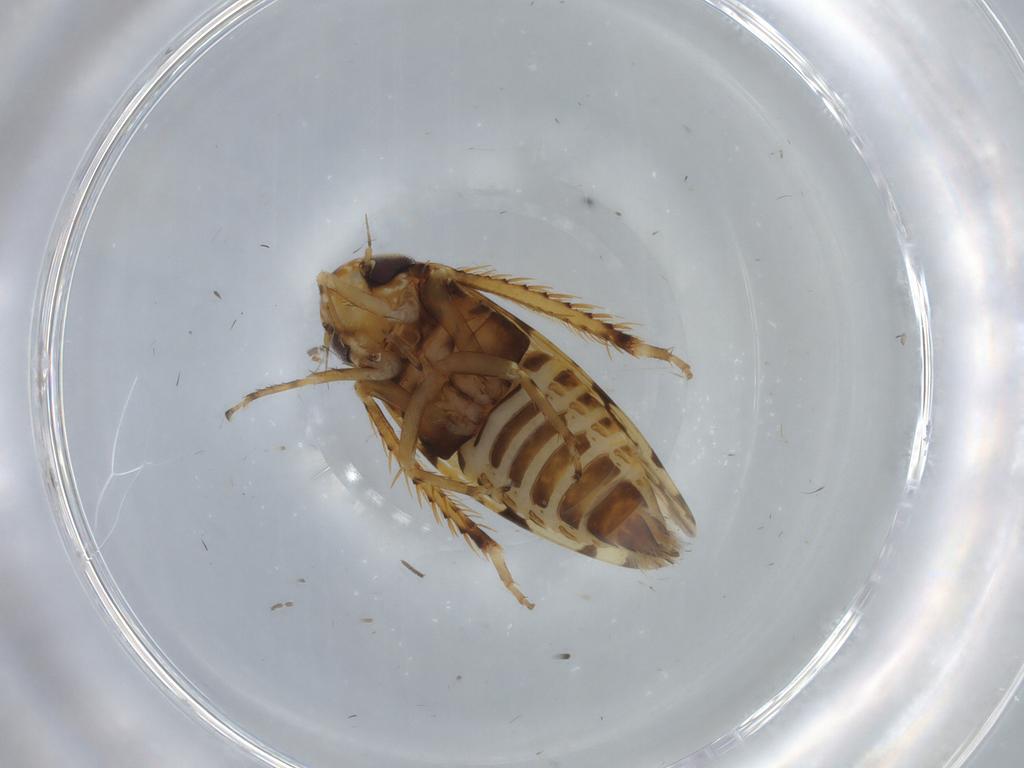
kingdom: Animalia
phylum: Arthropoda
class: Insecta
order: Hemiptera
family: Cicadellidae
